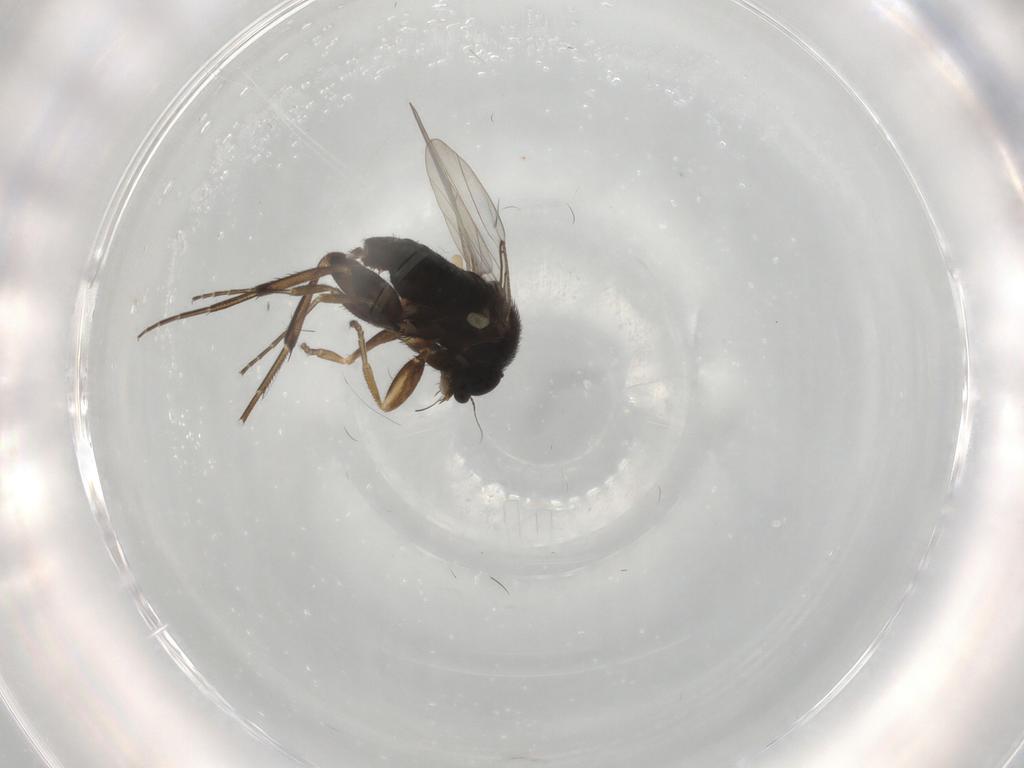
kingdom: Animalia
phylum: Arthropoda
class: Insecta
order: Diptera
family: Phoridae
